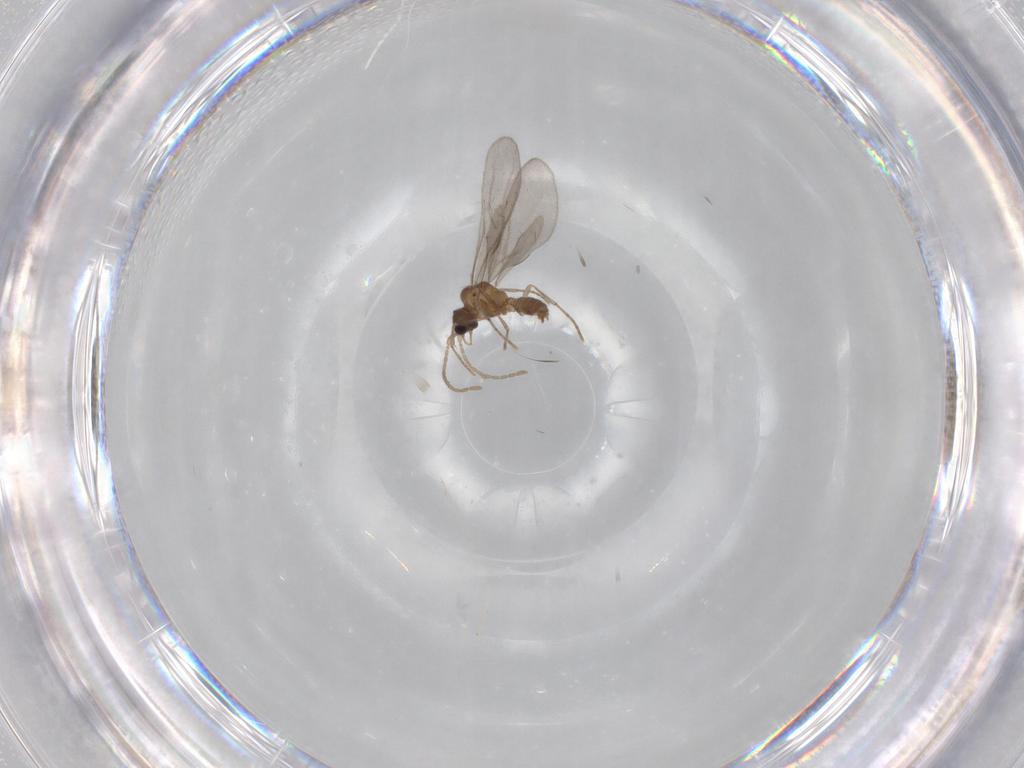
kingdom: Animalia
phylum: Arthropoda
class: Insecta
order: Hymenoptera
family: Formicidae
